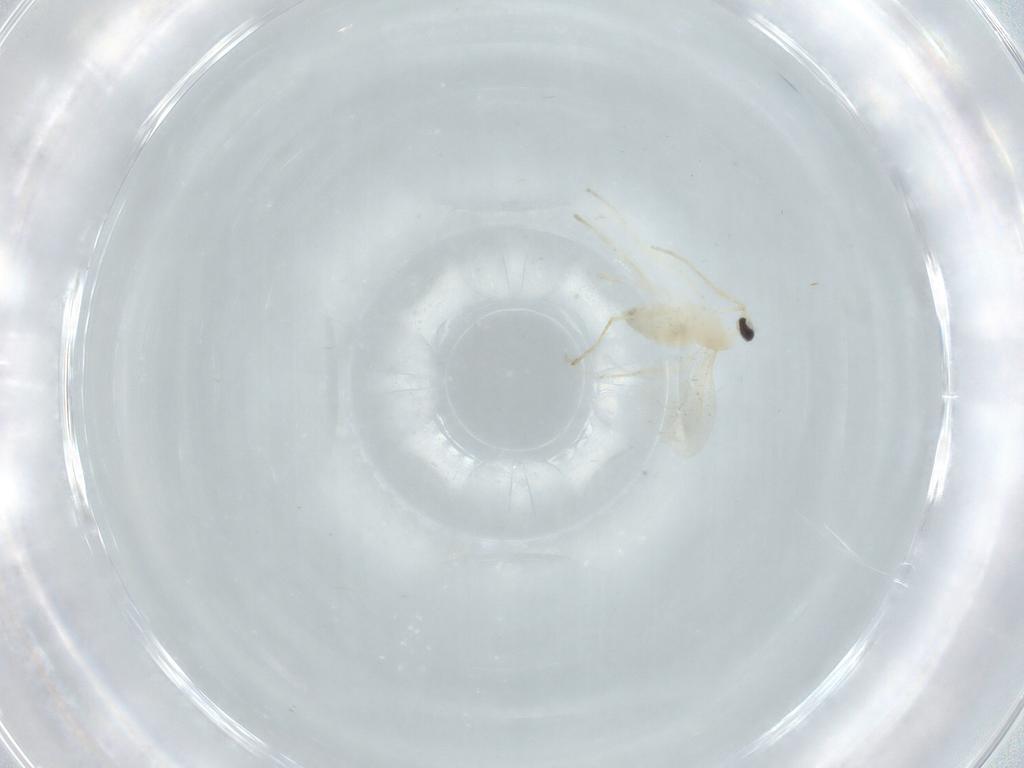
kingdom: Animalia
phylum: Arthropoda
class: Insecta
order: Diptera
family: Cecidomyiidae
